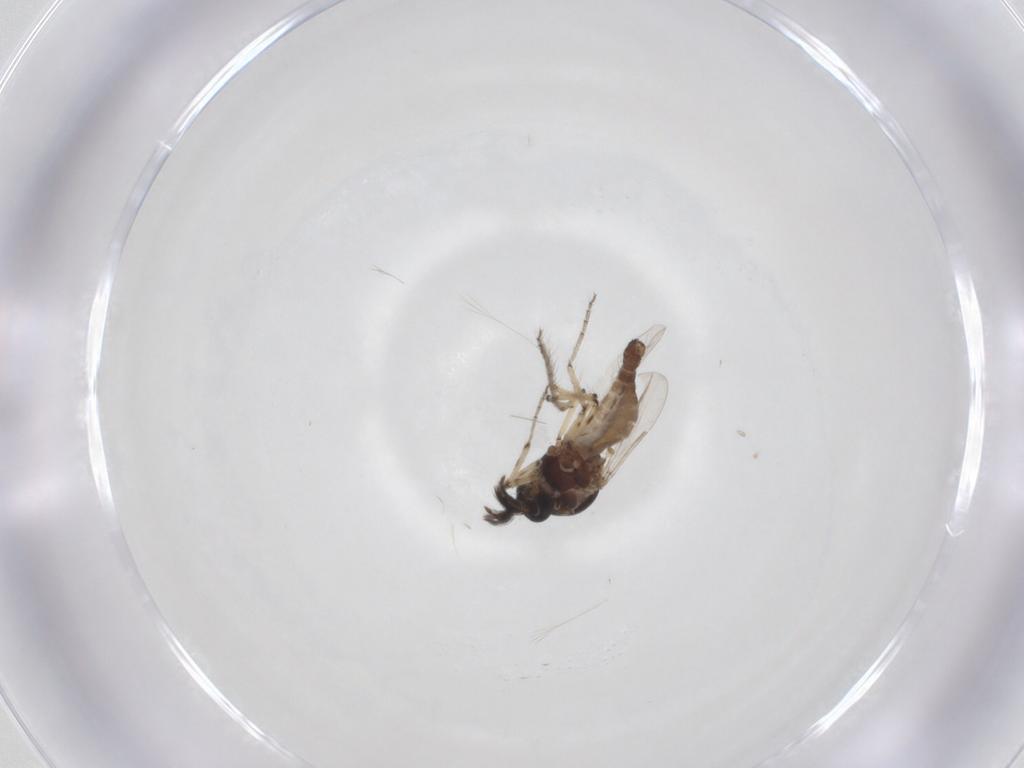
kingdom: Animalia
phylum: Arthropoda
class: Insecta
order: Diptera
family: Ceratopogonidae
